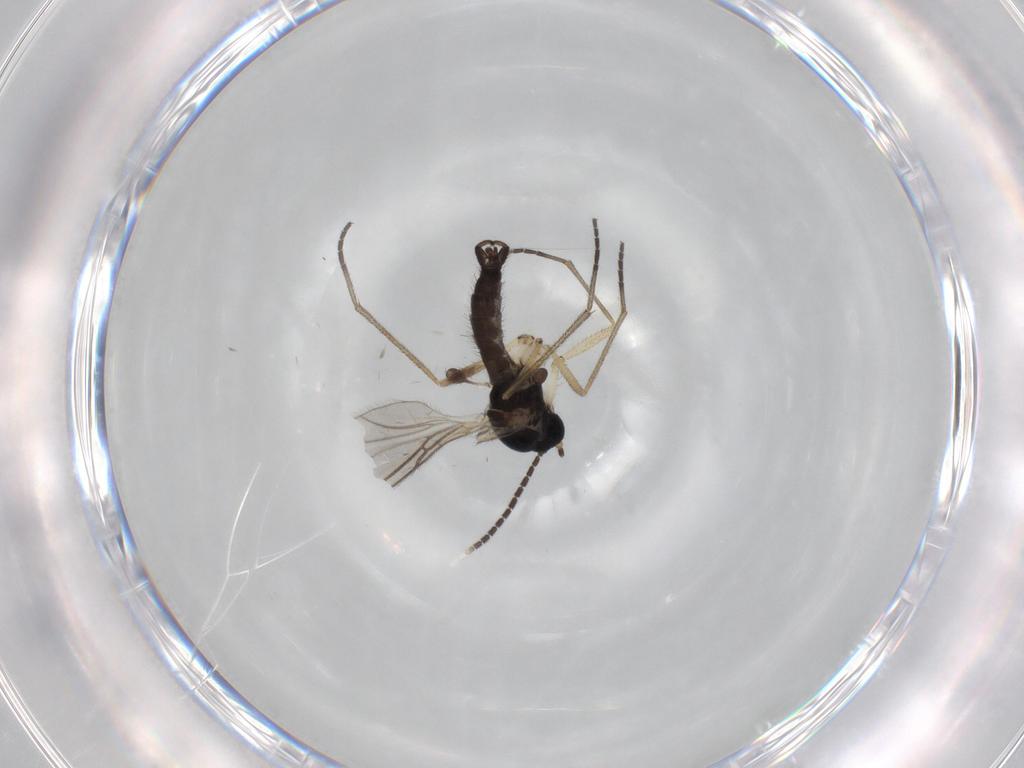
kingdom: Animalia
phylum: Arthropoda
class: Insecta
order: Diptera
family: Sciaridae
